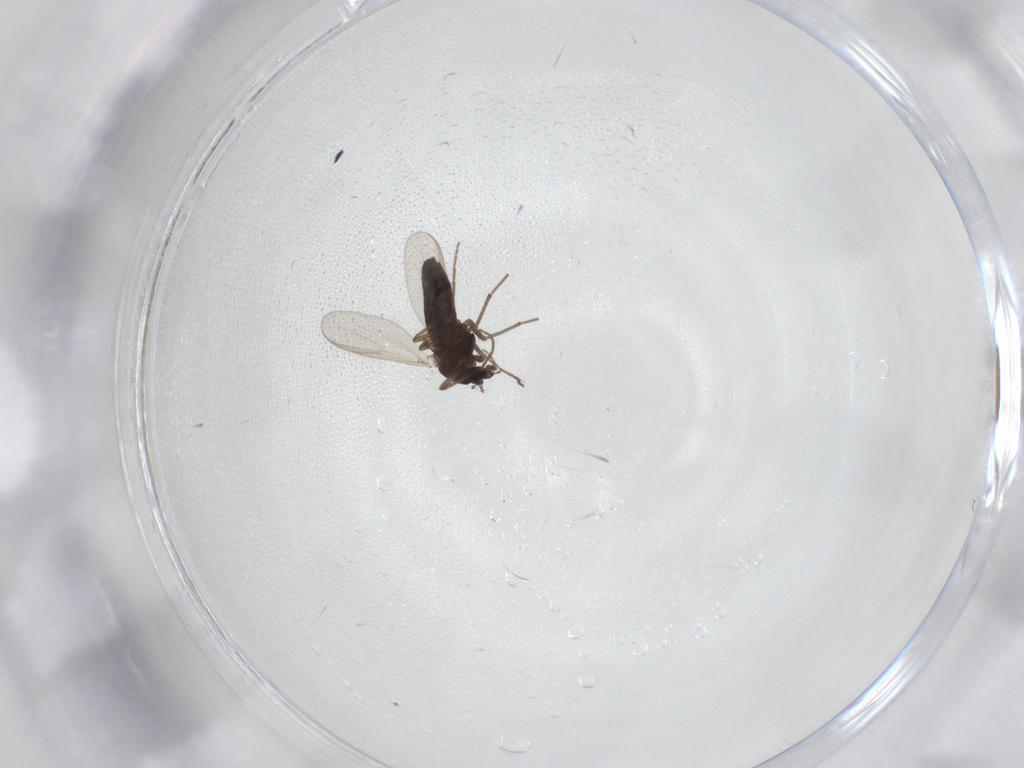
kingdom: Animalia
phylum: Arthropoda
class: Insecta
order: Diptera
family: Chironomidae
